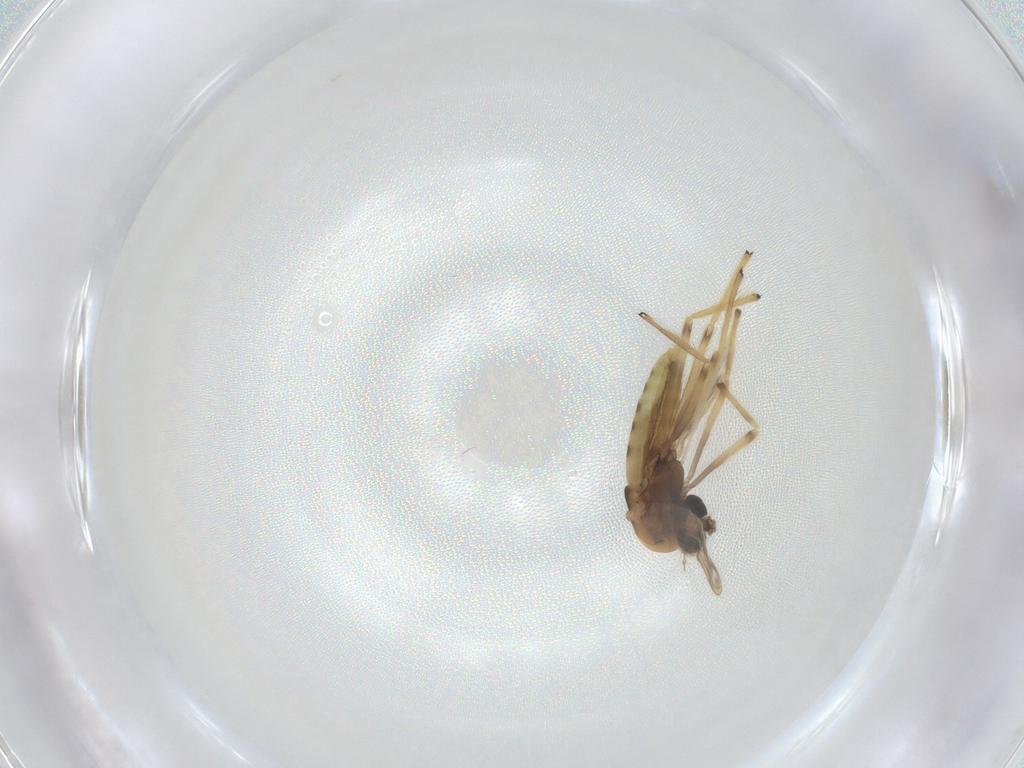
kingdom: Animalia
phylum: Arthropoda
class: Insecta
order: Diptera
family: Chironomidae
